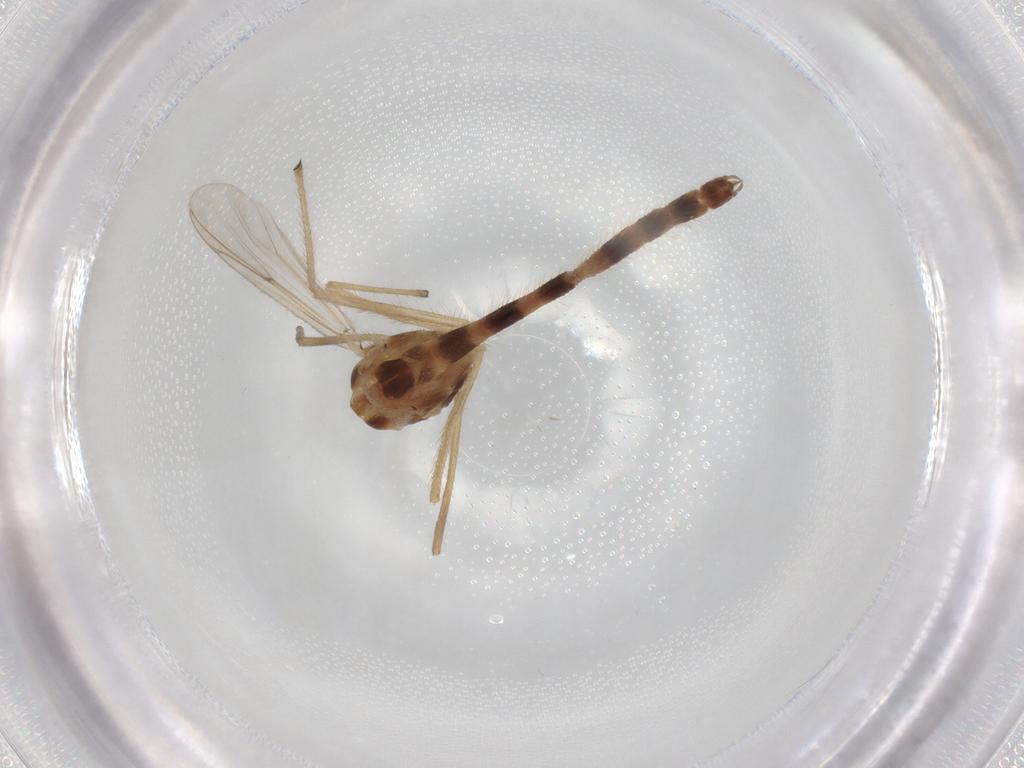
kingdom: Animalia
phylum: Arthropoda
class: Insecta
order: Diptera
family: Chironomidae
